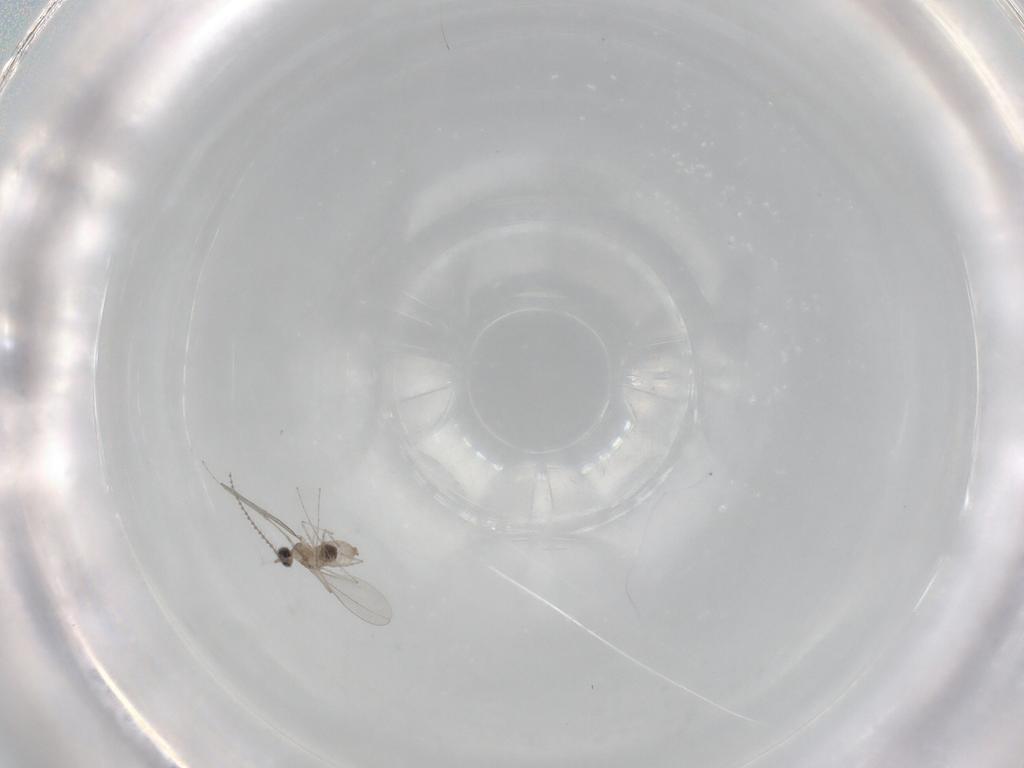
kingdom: Animalia
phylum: Arthropoda
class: Insecta
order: Diptera
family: Cecidomyiidae
